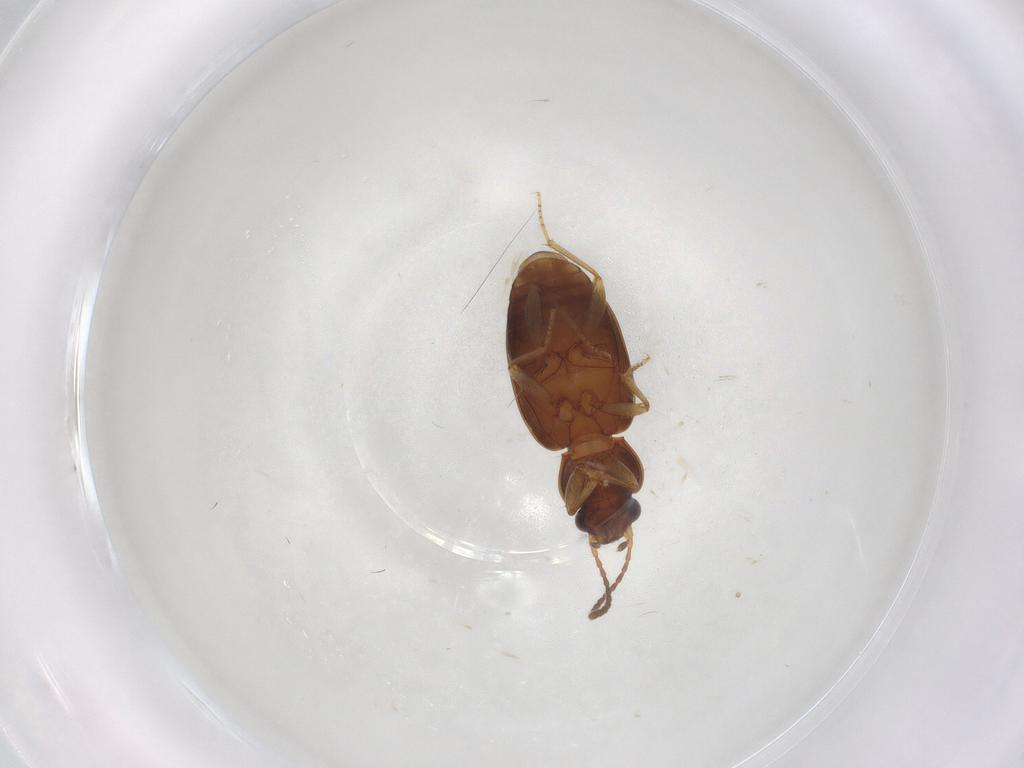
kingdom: Animalia
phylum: Arthropoda
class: Insecta
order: Coleoptera
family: Carabidae
